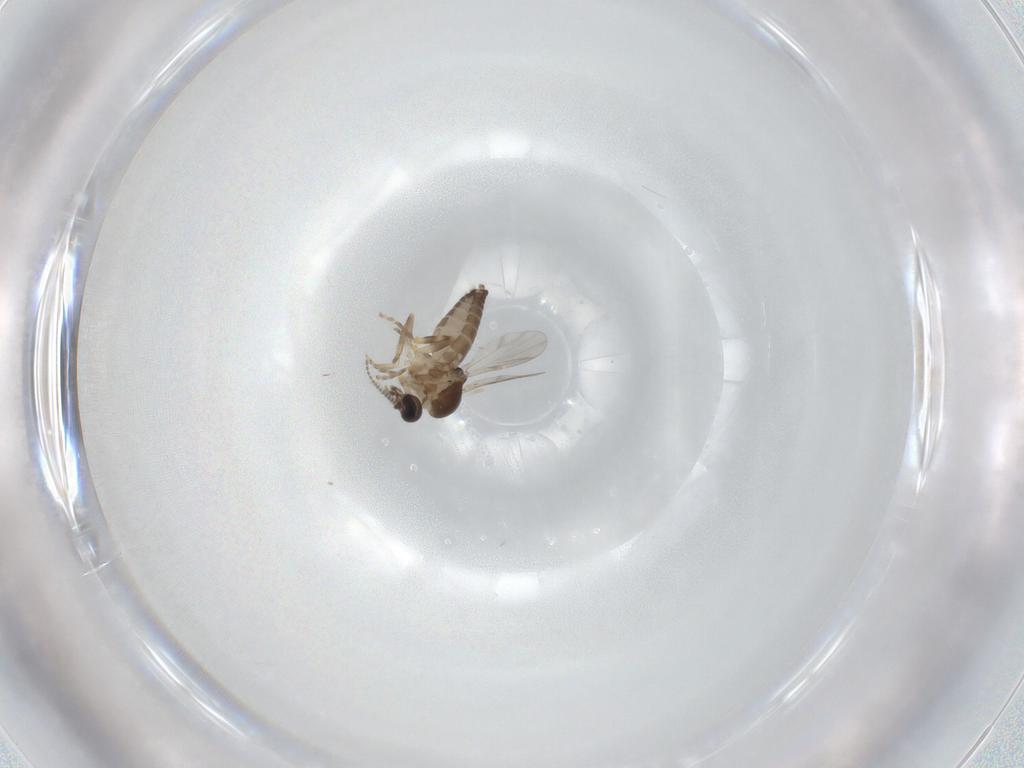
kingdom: Animalia
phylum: Arthropoda
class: Insecta
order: Diptera
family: Ceratopogonidae
